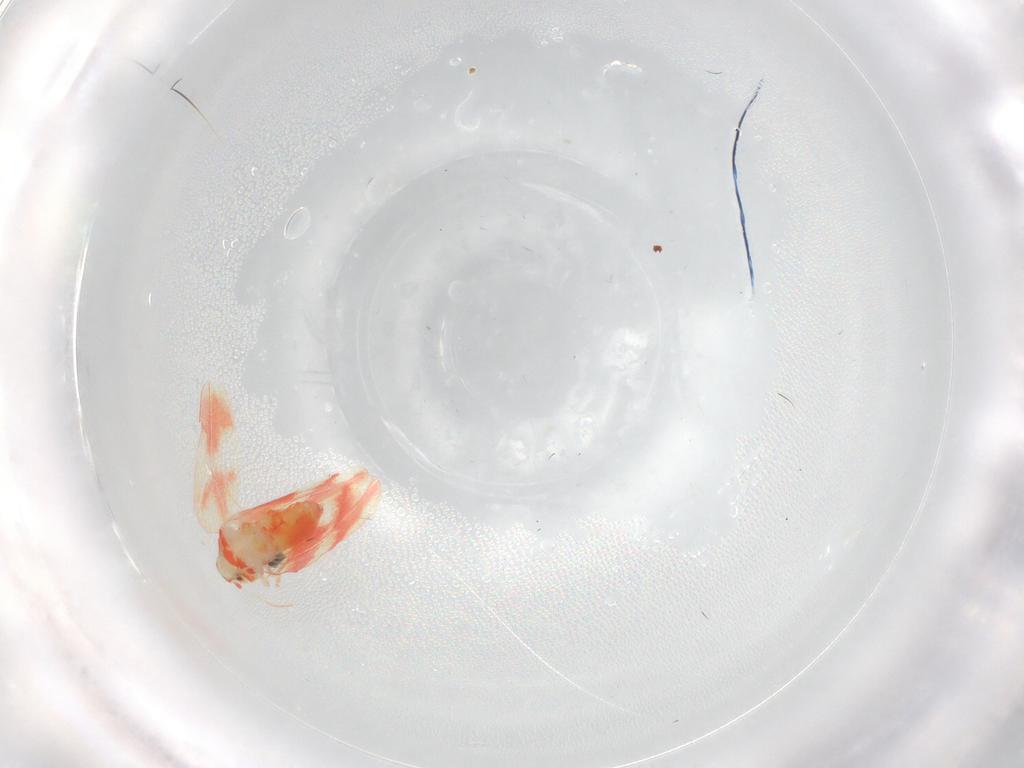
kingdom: Animalia
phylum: Arthropoda
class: Insecta
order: Hemiptera
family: Aleyrodidae
